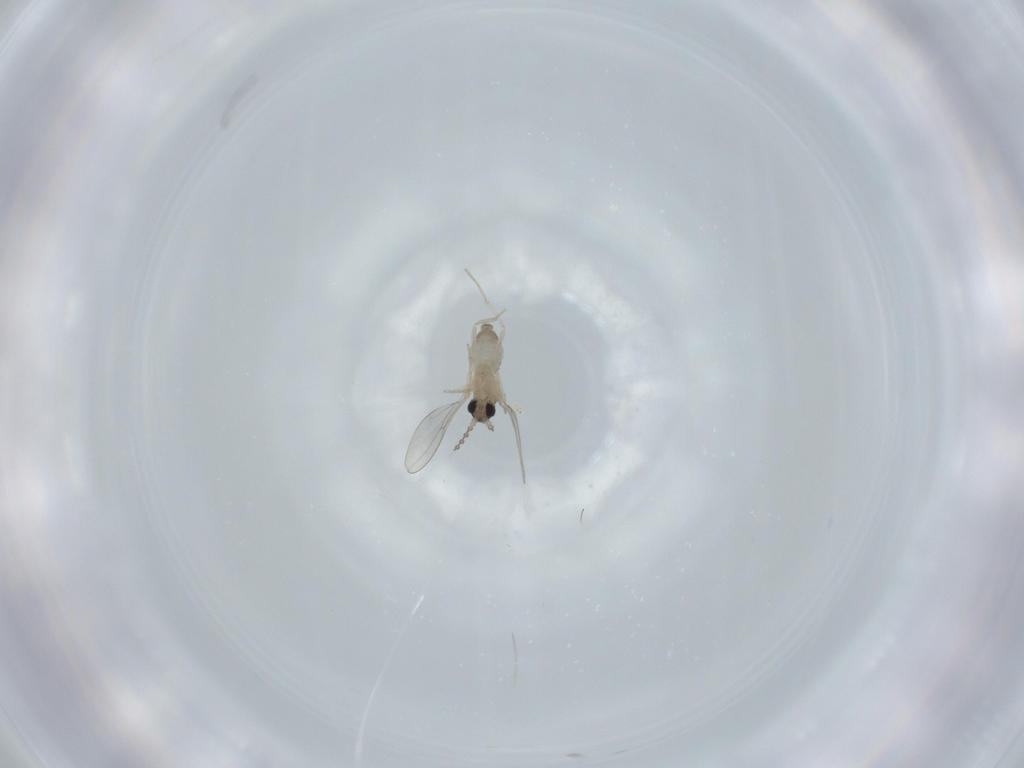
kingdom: Animalia
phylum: Arthropoda
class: Insecta
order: Diptera
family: Cecidomyiidae
